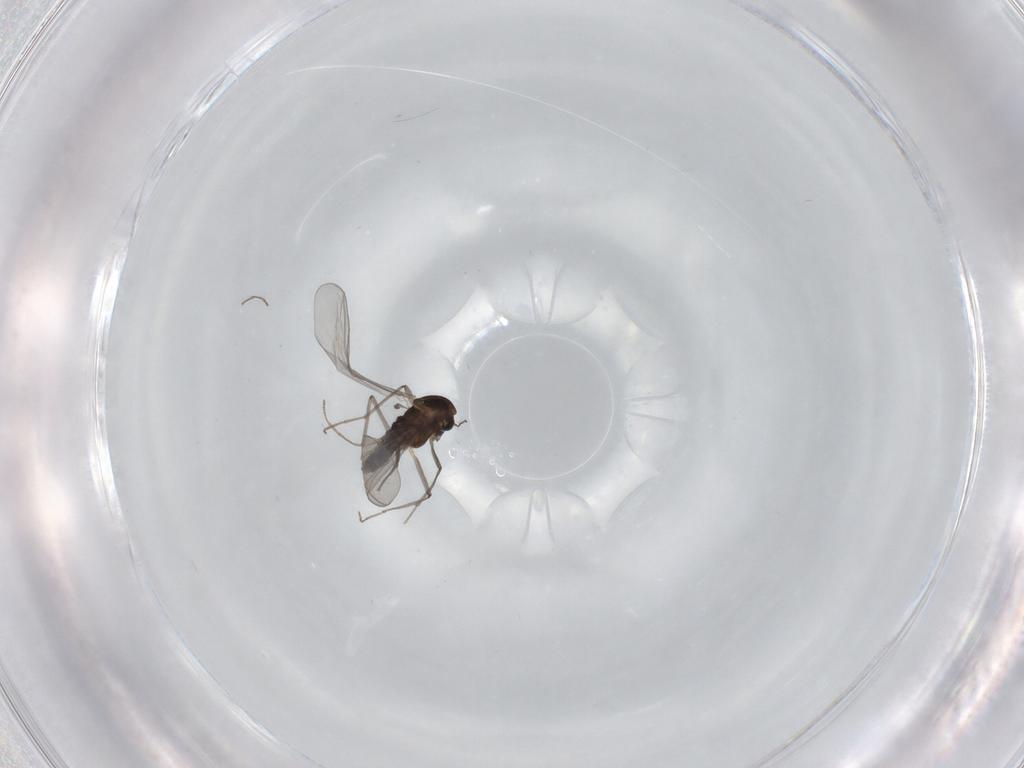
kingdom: Animalia
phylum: Arthropoda
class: Insecta
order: Diptera
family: Chironomidae
